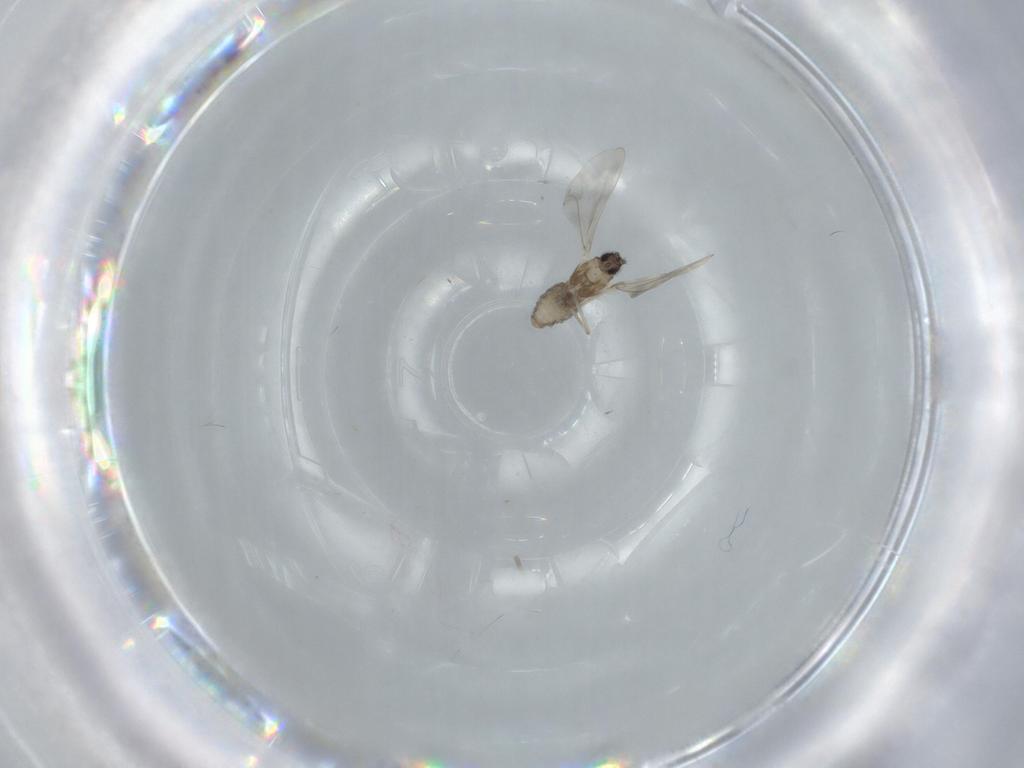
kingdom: Animalia
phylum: Arthropoda
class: Insecta
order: Diptera
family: Cecidomyiidae
